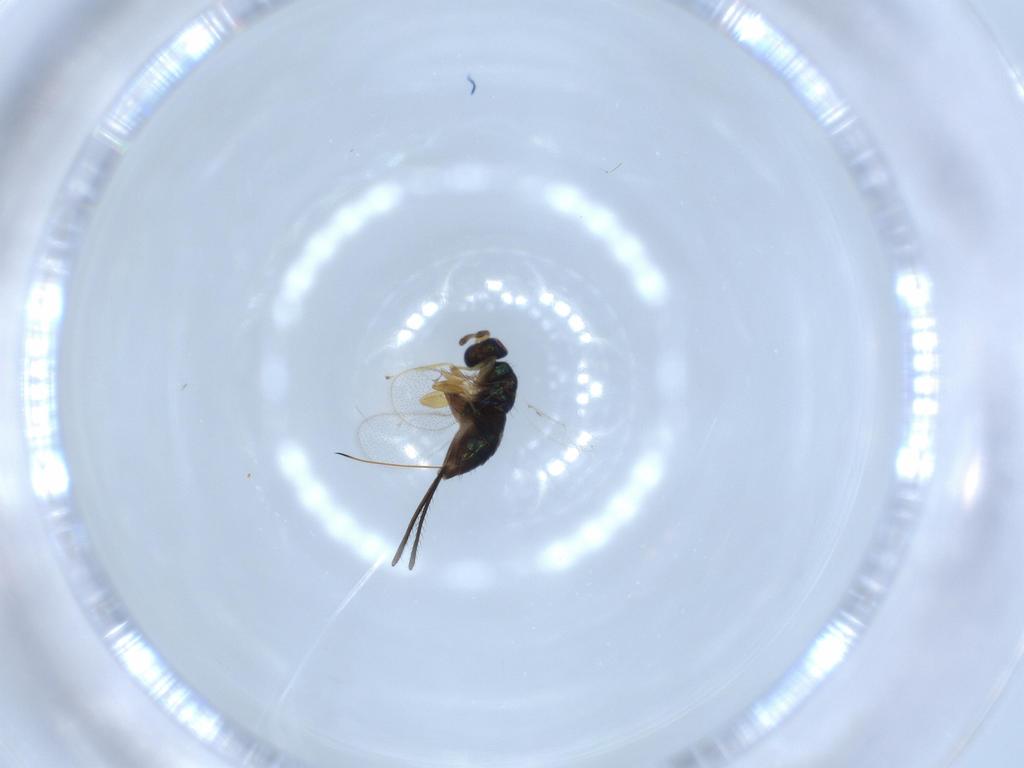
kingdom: Animalia
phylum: Arthropoda
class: Insecta
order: Hymenoptera
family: Torymidae
